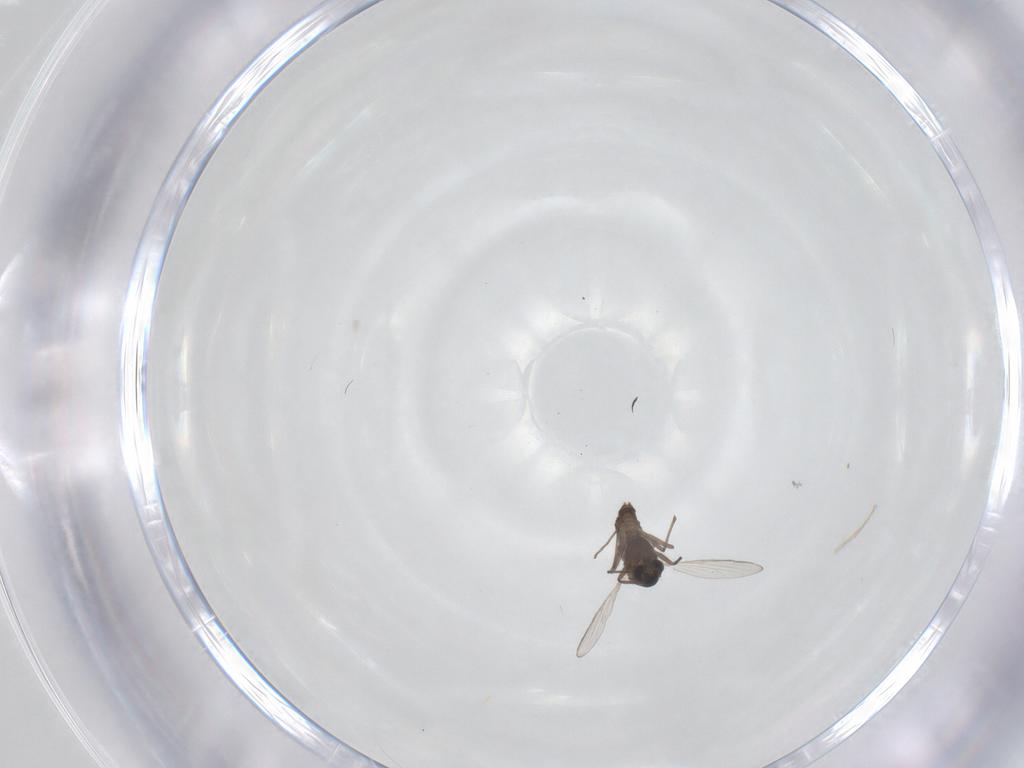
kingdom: Animalia
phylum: Arthropoda
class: Insecta
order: Diptera
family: Chironomidae
